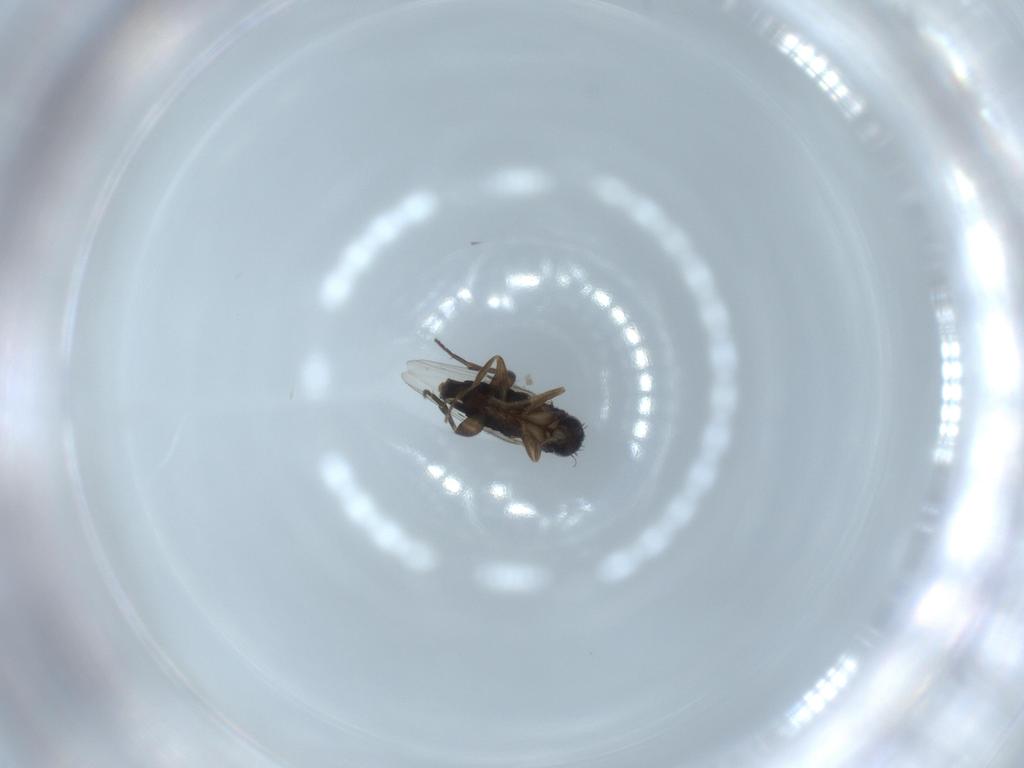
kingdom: Animalia
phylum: Arthropoda
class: Insecta
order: Diptera
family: Phoridae
